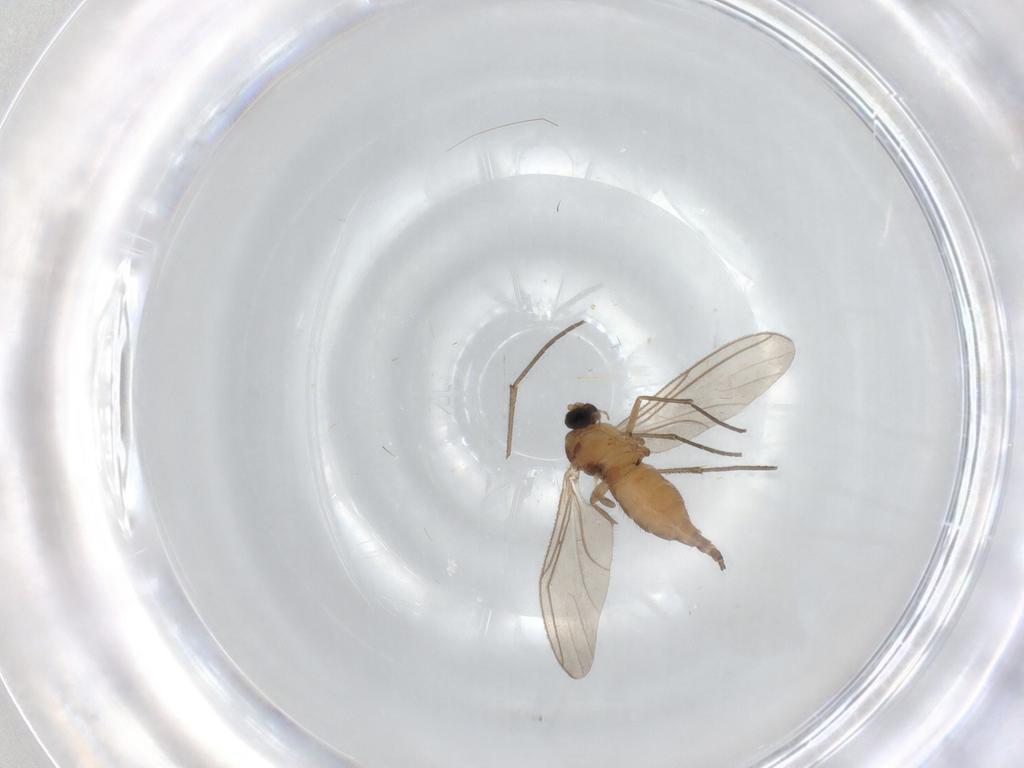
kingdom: Animalia
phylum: Arthropoda
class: Insecta
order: Diptera
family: Sciaridae
